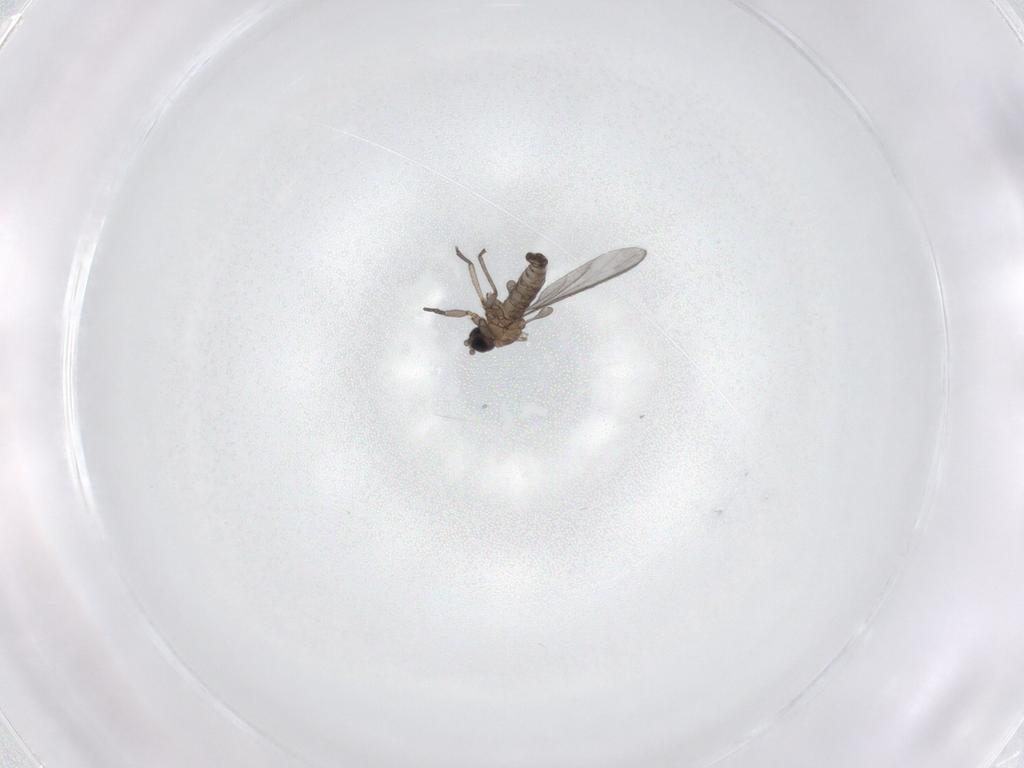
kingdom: Animalia
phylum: Arthropoda
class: Insecta
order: Diptera
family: Sciaridae
